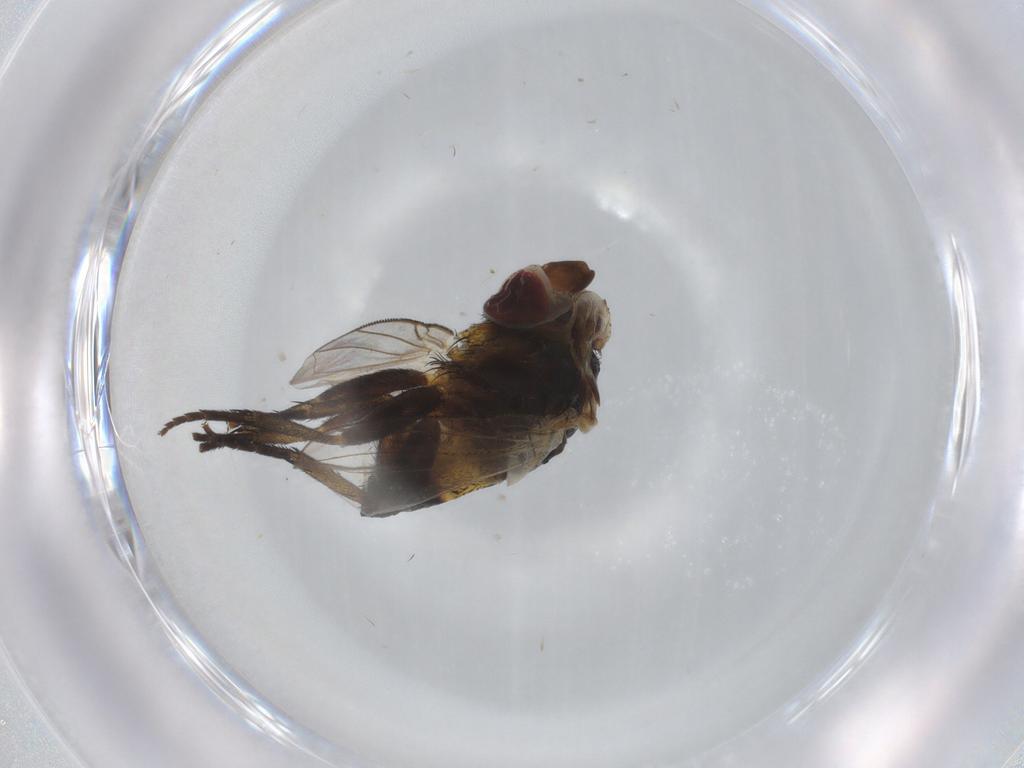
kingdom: Animalia
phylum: Arthropoda
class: Insecta
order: Diptera
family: Tachinidae
